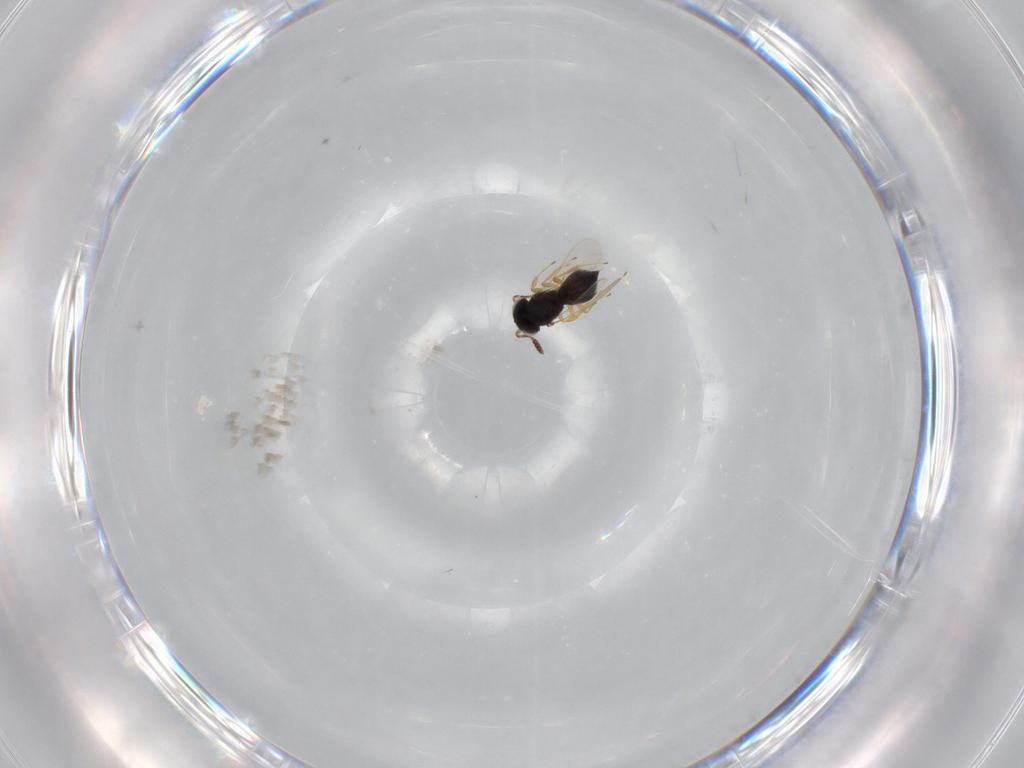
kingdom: Animalia
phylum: Arthropoda
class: Insecta
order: Hymenoptera
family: Scelionidae
